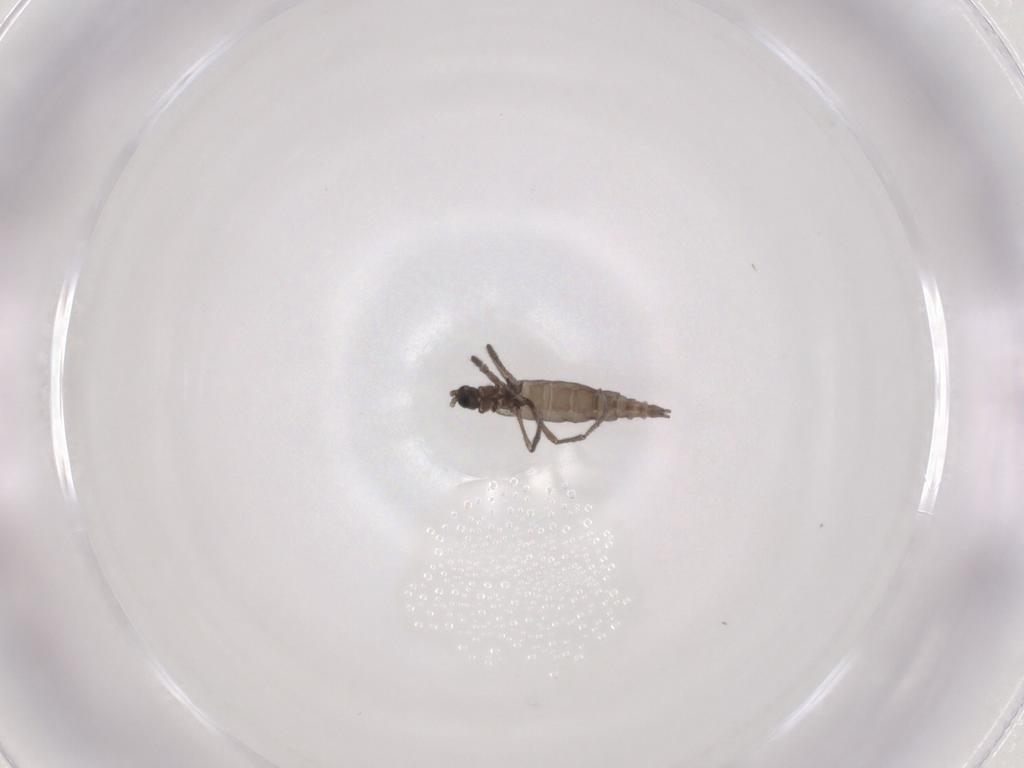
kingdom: Animalia
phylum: Arthropoda
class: Insecta
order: Diptera
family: Sciaridae
